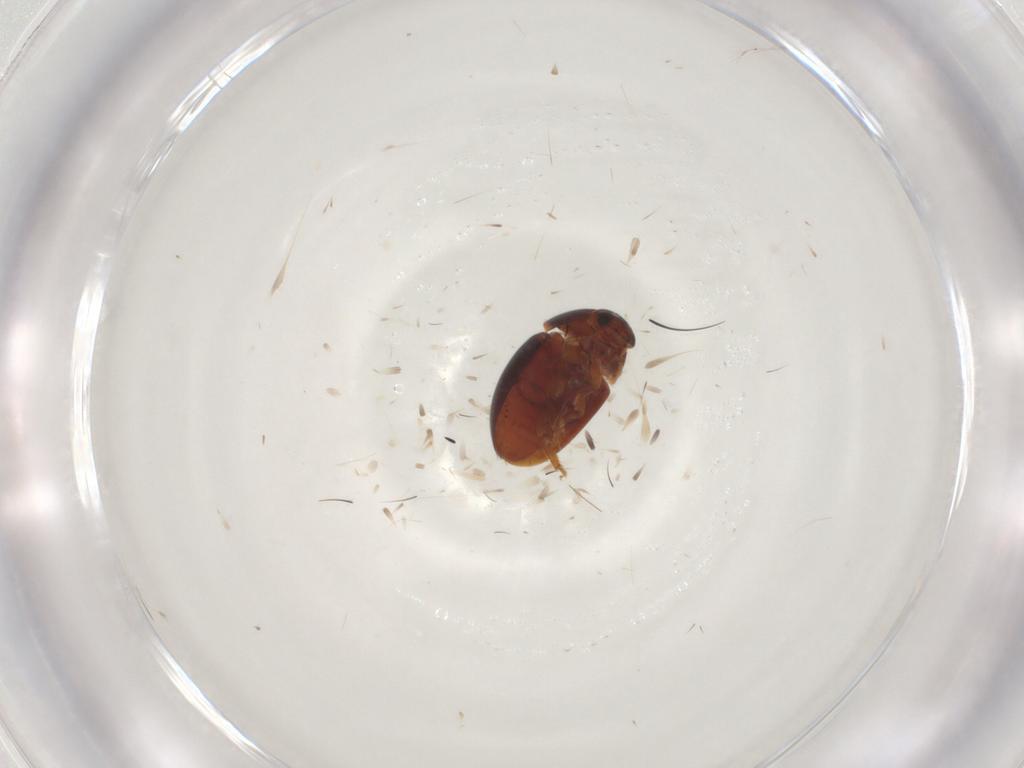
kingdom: Animalia
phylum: Arthropoda
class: Insecta
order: Coleoptera
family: Phalacridae
